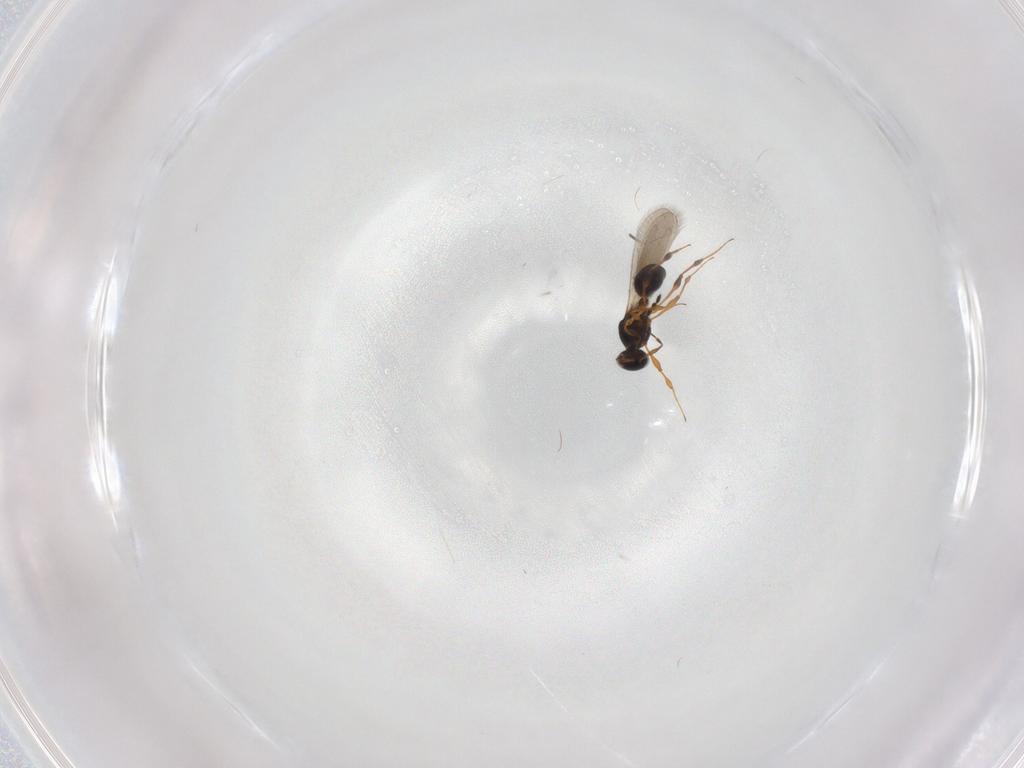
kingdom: Animalia
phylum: Arthropoda
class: Insecta
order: Hymenoptera
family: Platygastridae
